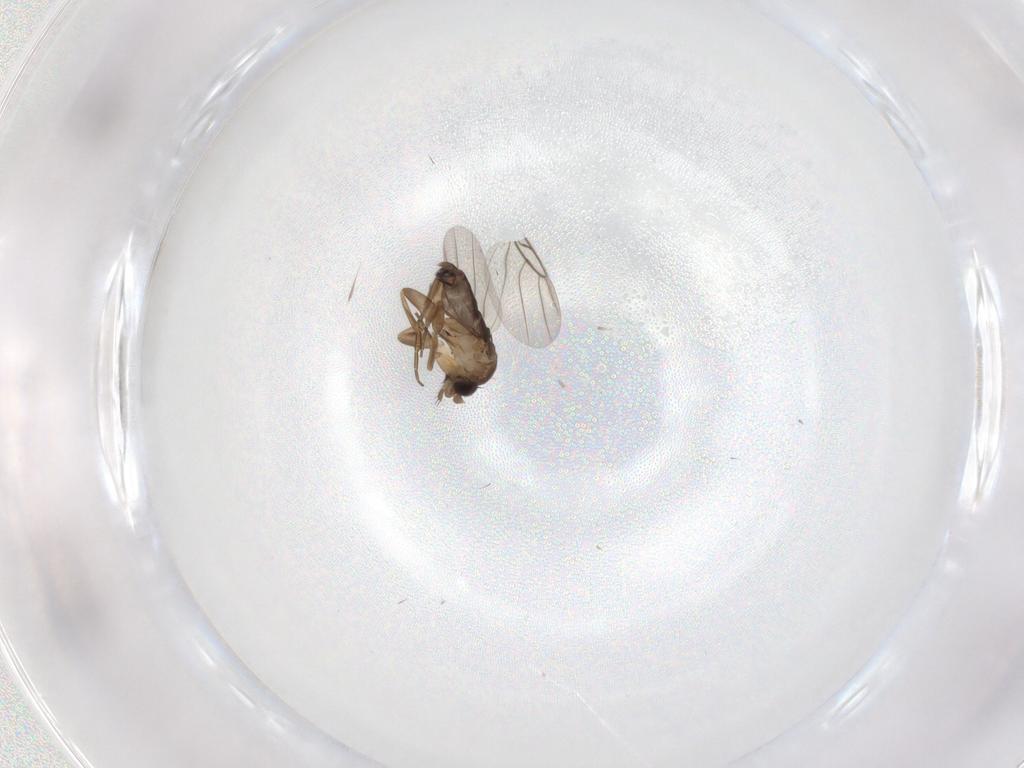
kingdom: Animalia
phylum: Arthropoda
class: Insecta
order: Diptera
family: Phoridae
